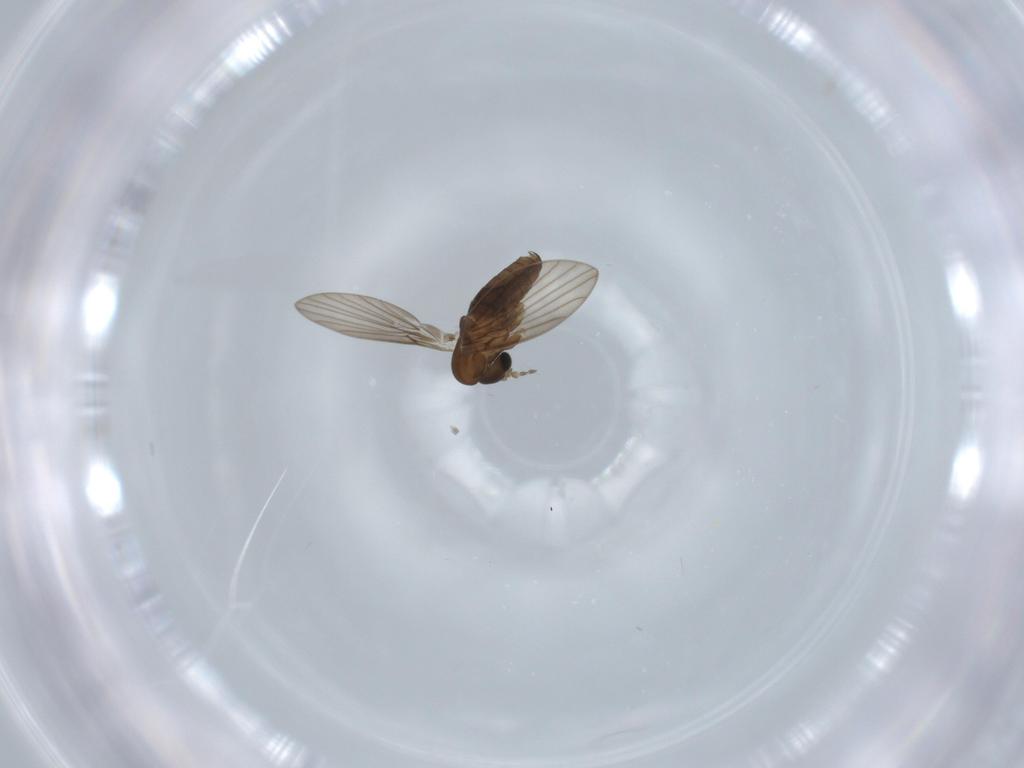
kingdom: Animalia
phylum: Arthropoda
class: Insecta
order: Diptera
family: Psychodidae
